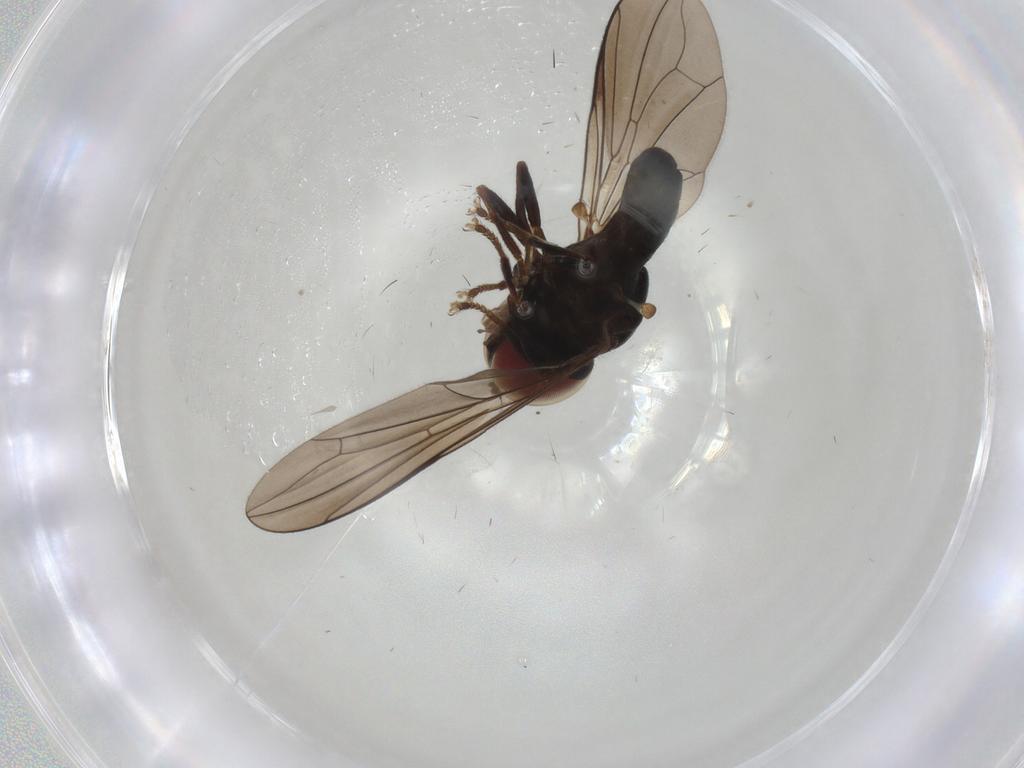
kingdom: Animalia
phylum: Arthropoda
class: Insecta
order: Diptera
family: Pipunculidae
